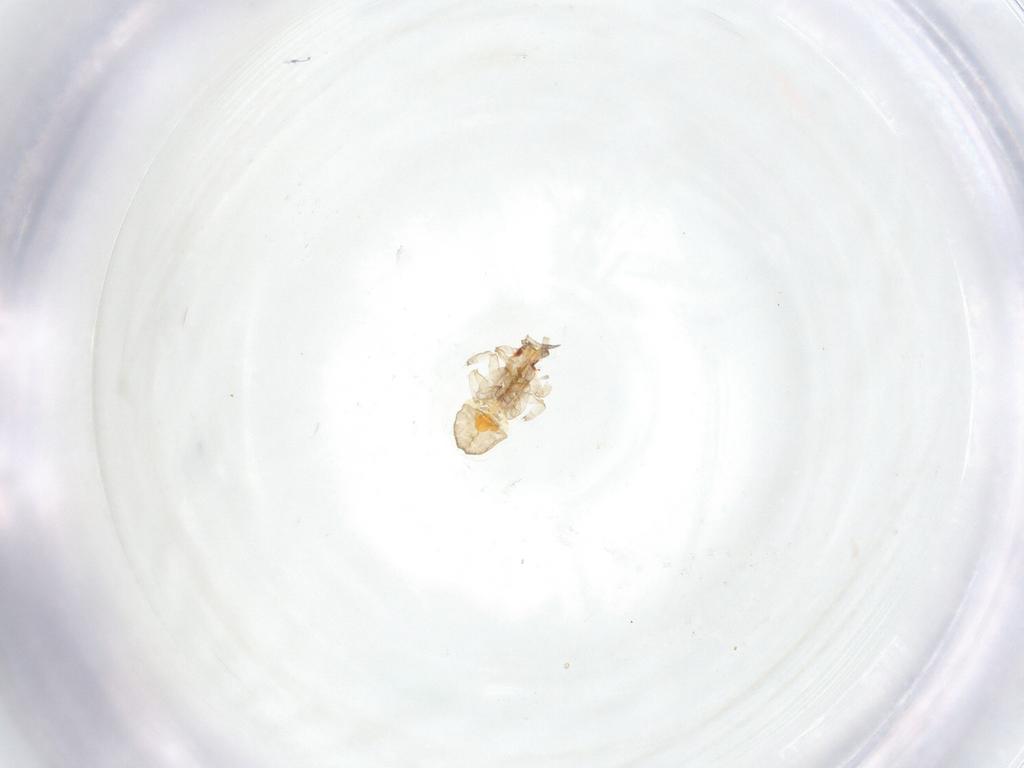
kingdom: Animalia
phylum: Arthropoda
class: Insecta
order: Hemiptera
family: Aphalaridae
